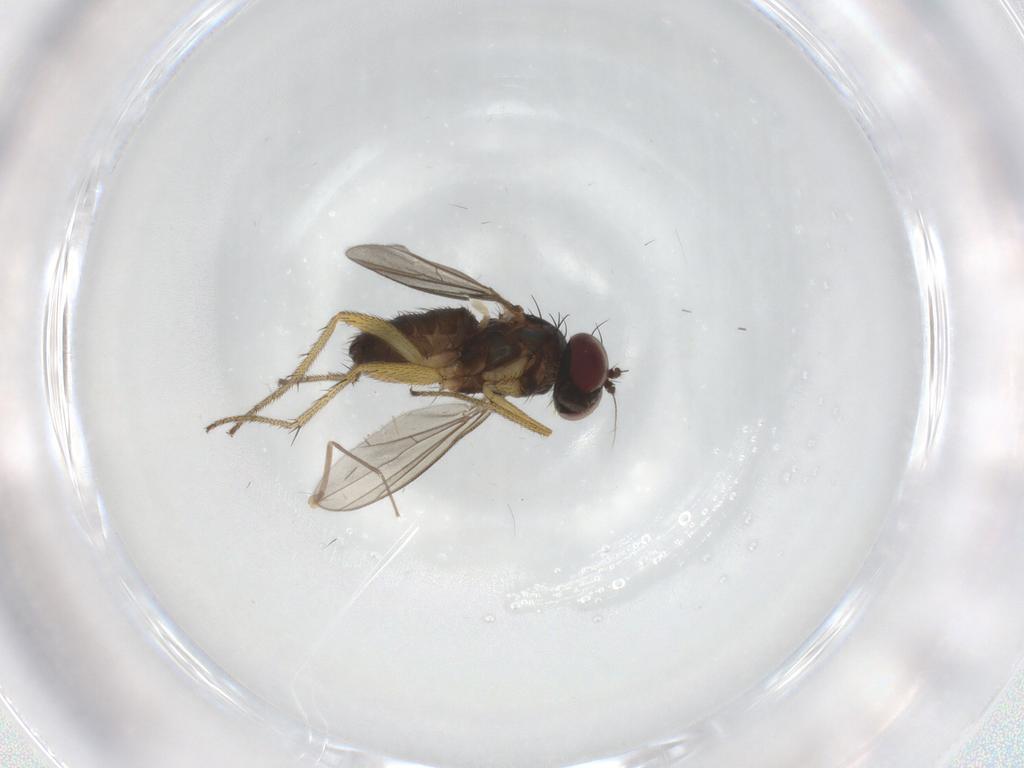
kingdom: Animalia
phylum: Arthropoda
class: Insecta
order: Diptera
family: Dolichopodidae
